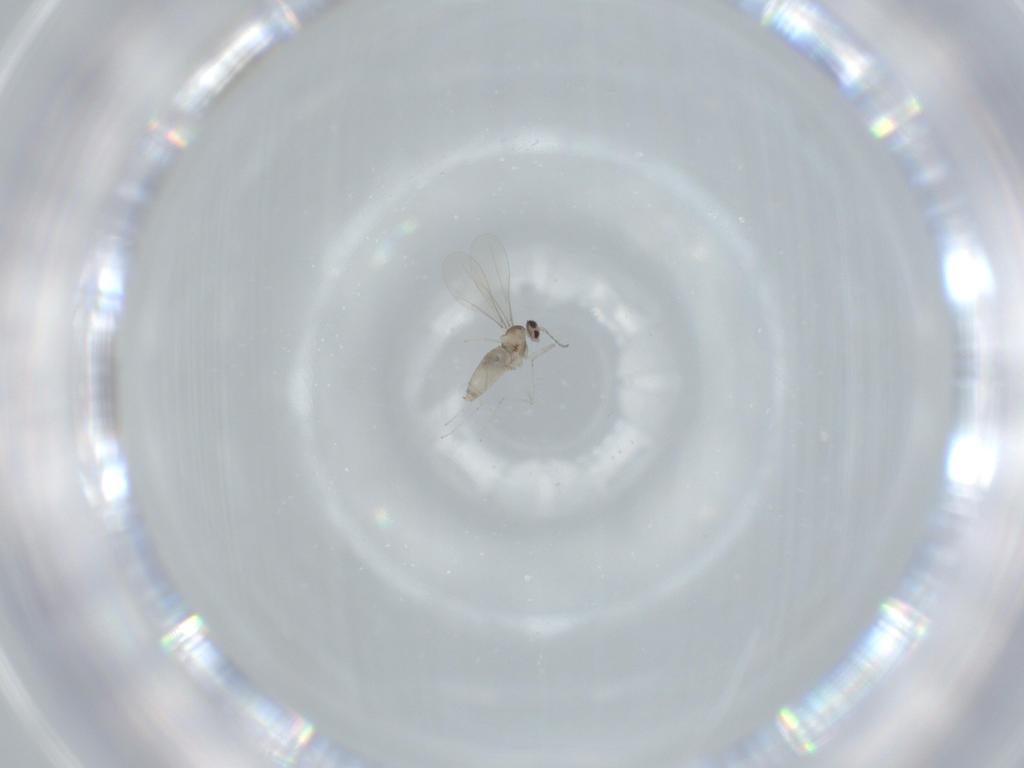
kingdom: Animalia
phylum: Arthropoda
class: Insecta
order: Diptera
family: Cecidomyiidae
